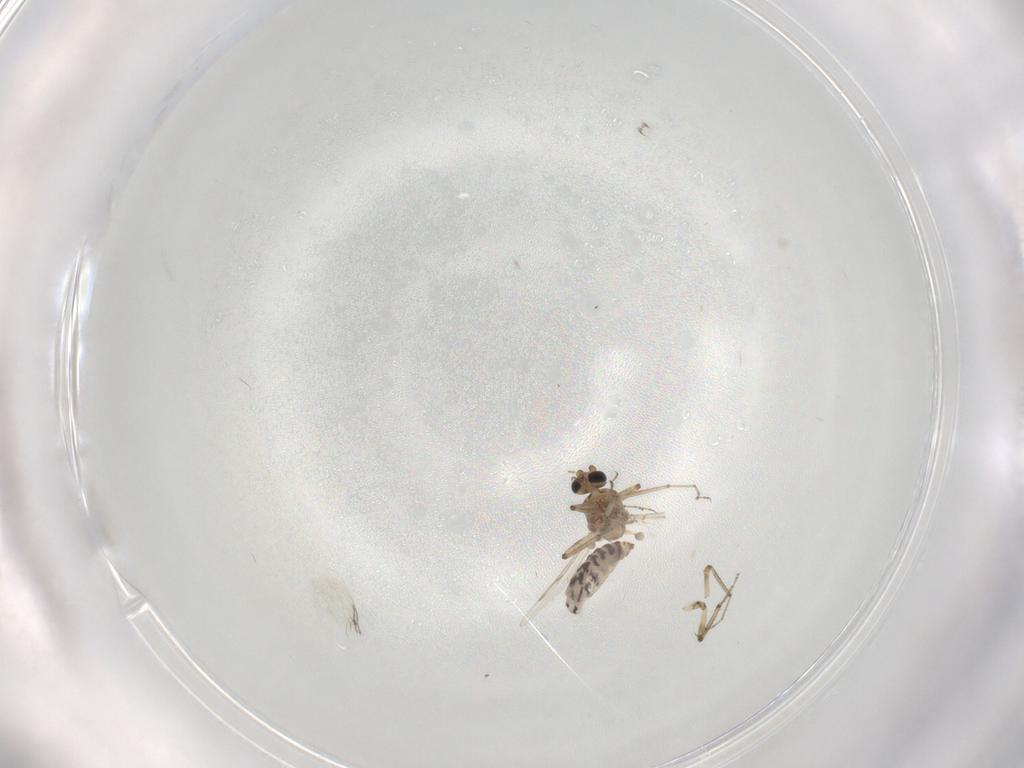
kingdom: Animalia
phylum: Arthropoda
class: Insecta
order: Diptera
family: Ceratopogonidae
